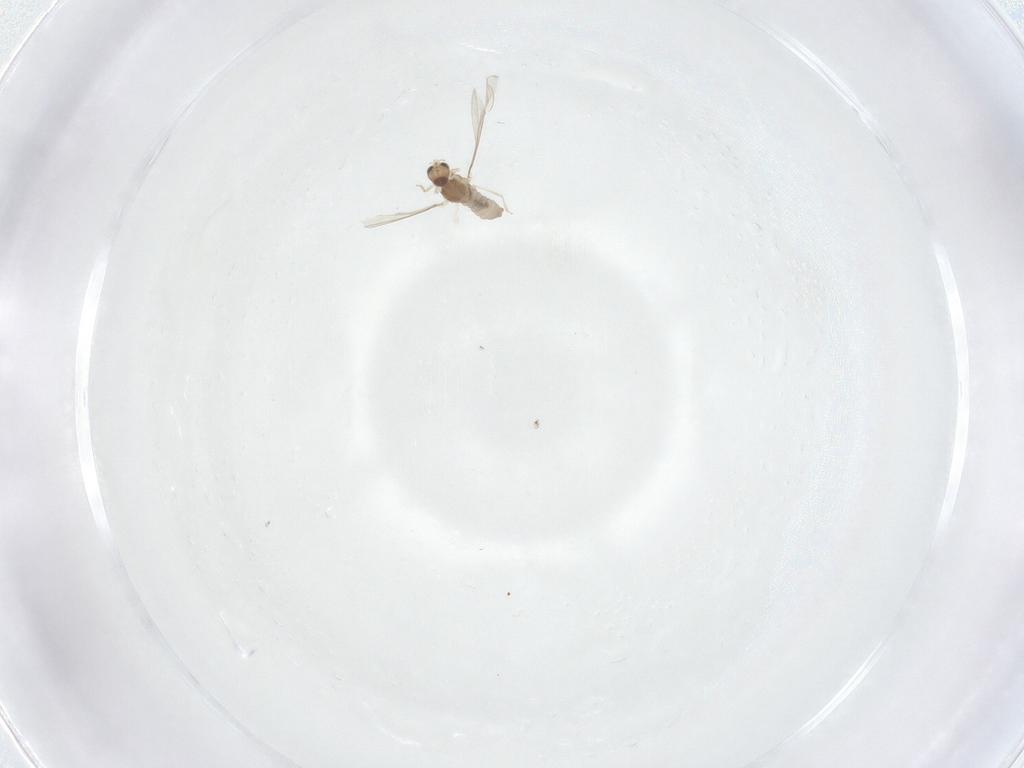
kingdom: Animalia
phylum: Arthropoda
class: Insecta
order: Diptera
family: Cecidomyiidae
